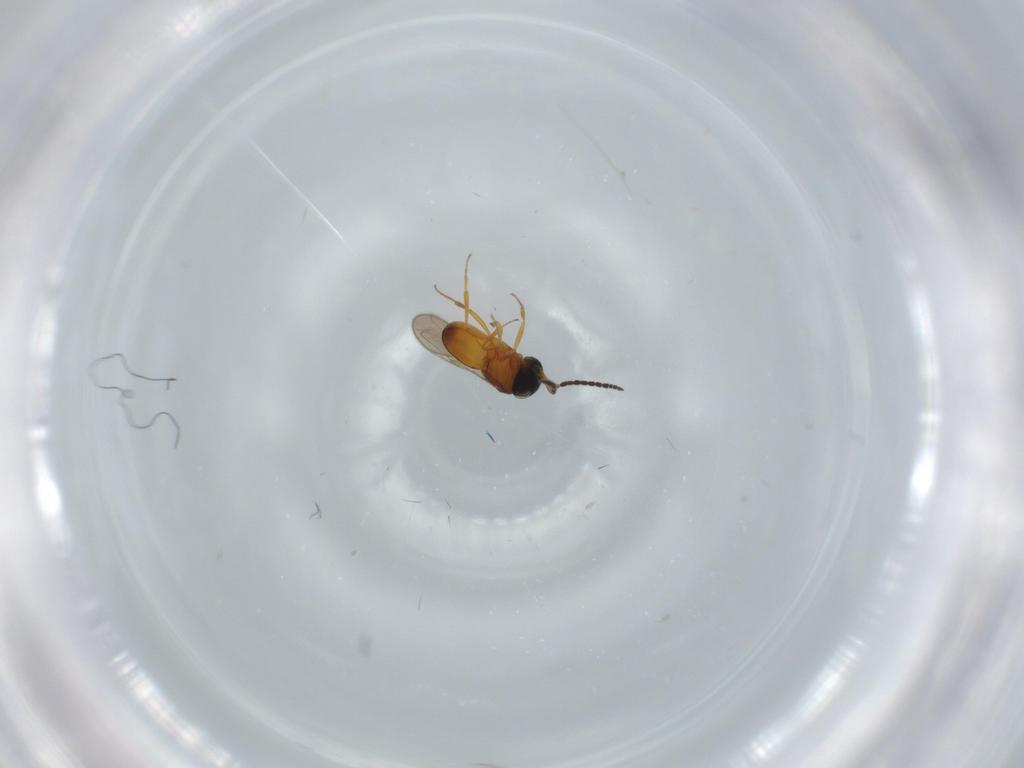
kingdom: Animalia
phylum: Arthropoda
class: Insecta
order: Hymenoptera
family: Scelionidae
